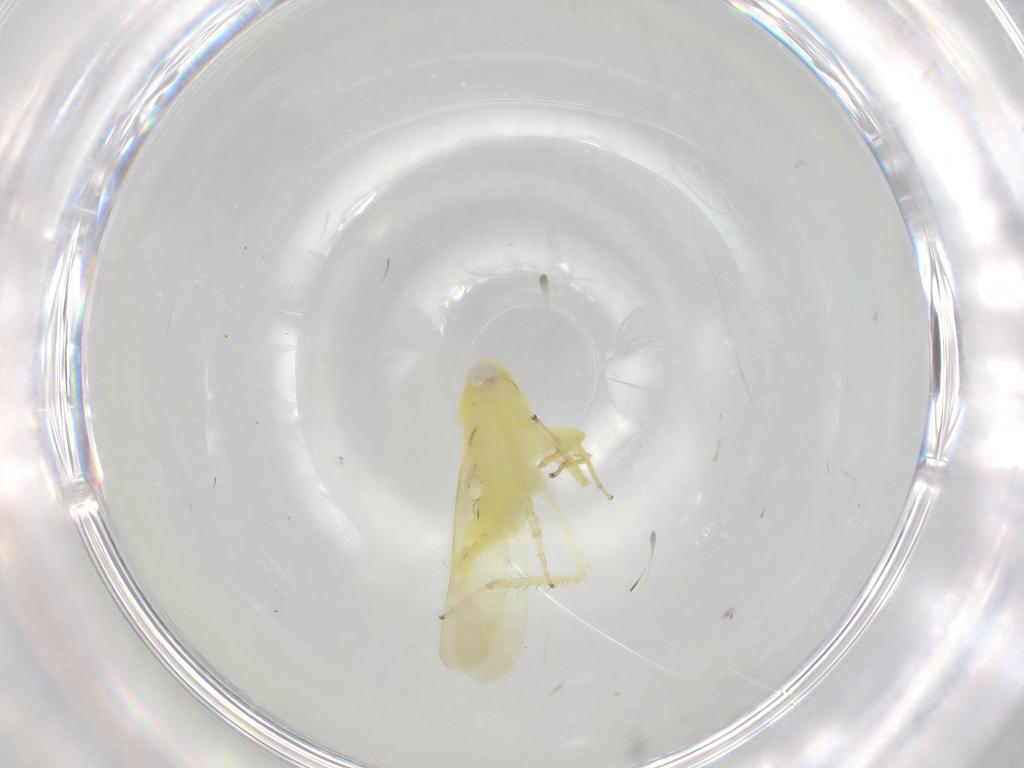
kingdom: Animalia
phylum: Arthropoda
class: Insecta
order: Hemiptera
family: Cicadellidae
